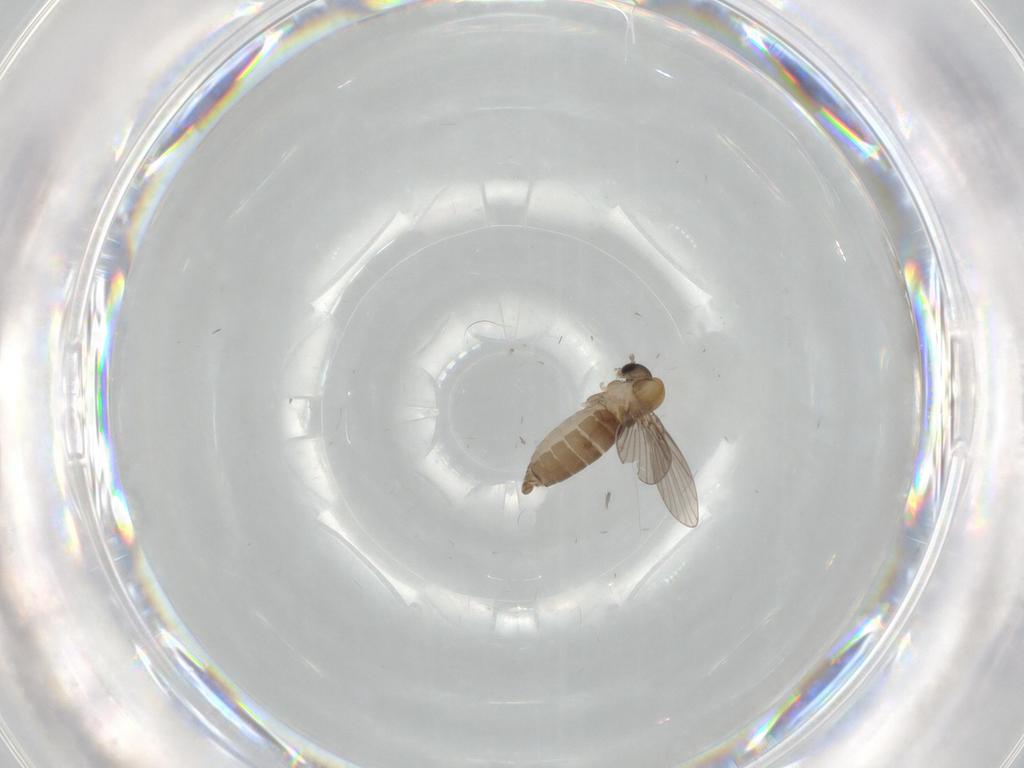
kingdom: Animalia
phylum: Arthropoda
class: Insecta
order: Diptera
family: Psychodidae
